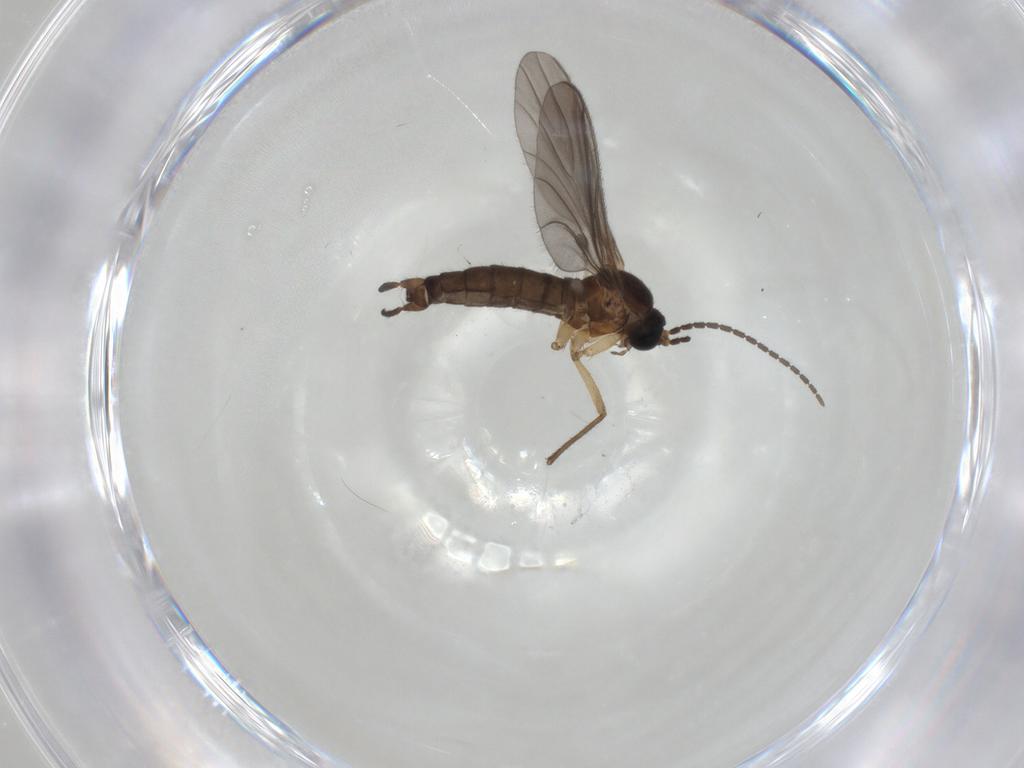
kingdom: Animalia
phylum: Arthropoda
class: Insecta
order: Diptera
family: Sciaridae
